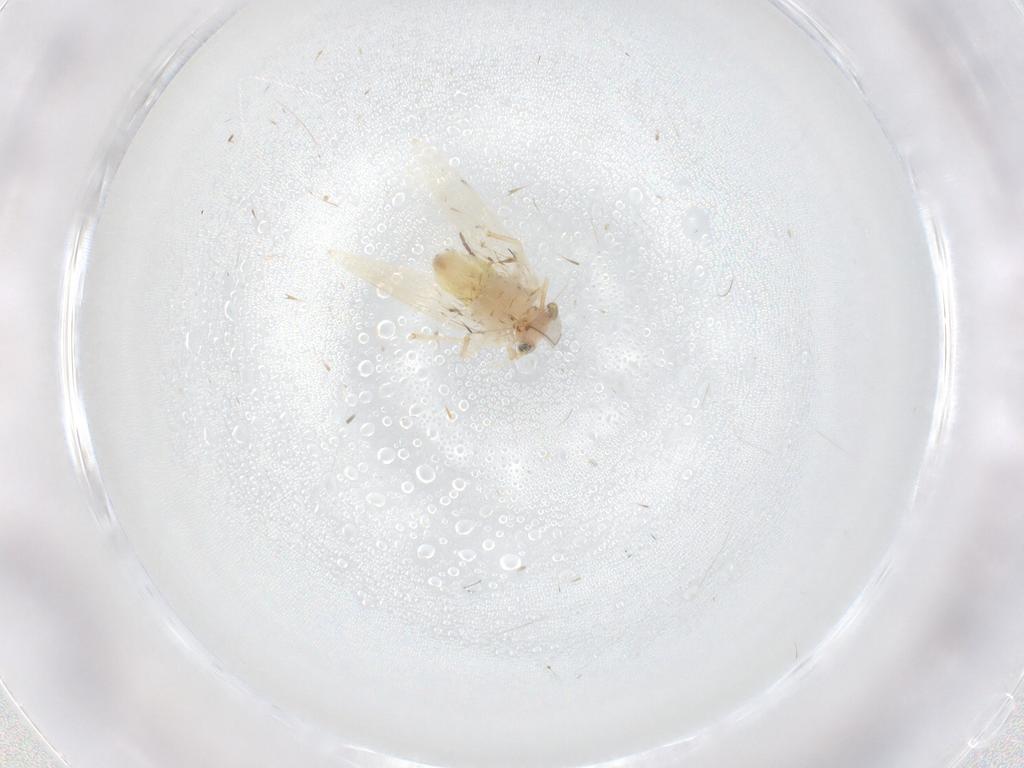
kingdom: Animalia
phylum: Arthropoda
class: Insecta
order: Psocodea
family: Lepidopsocidae
